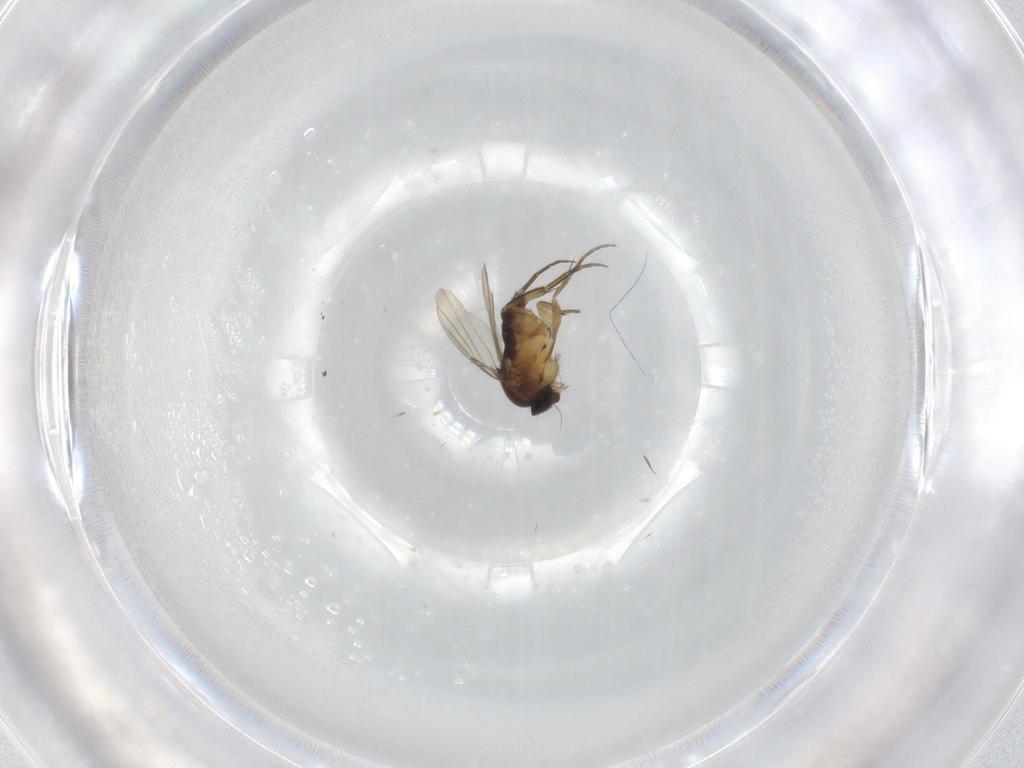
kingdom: Animalia
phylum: Arthropoda
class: Insecta
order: Diptera
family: Phoridae
